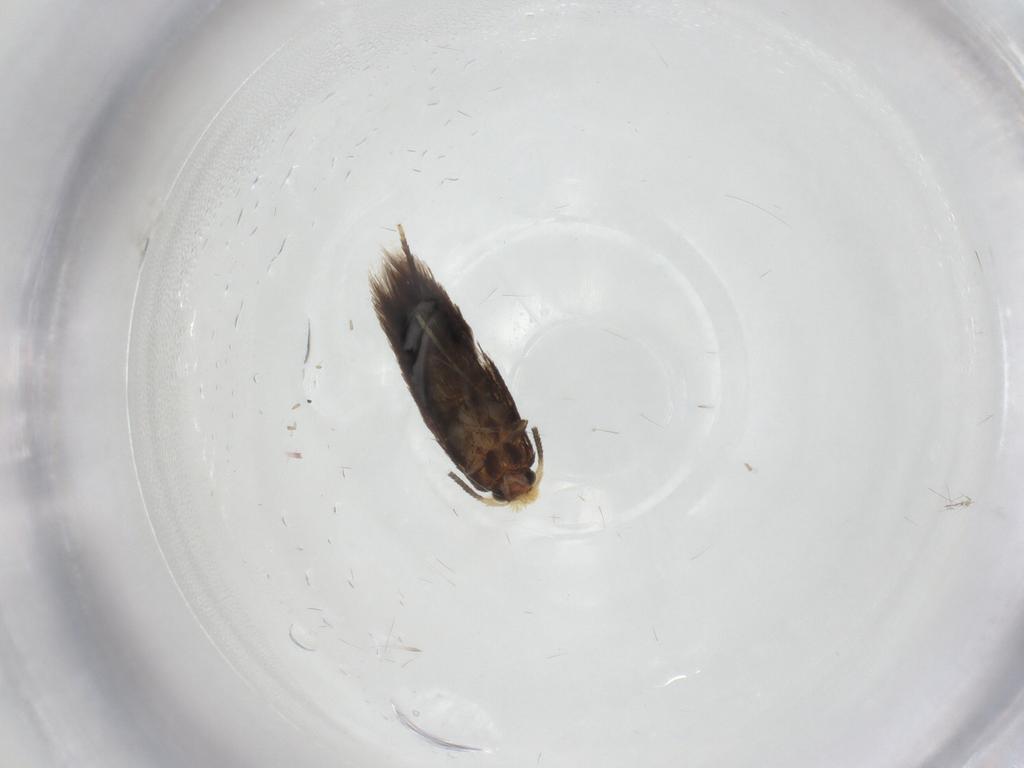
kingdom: Animalia
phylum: Arthropoda
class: Insecta
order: Lepidoptera
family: Nepticulidae
